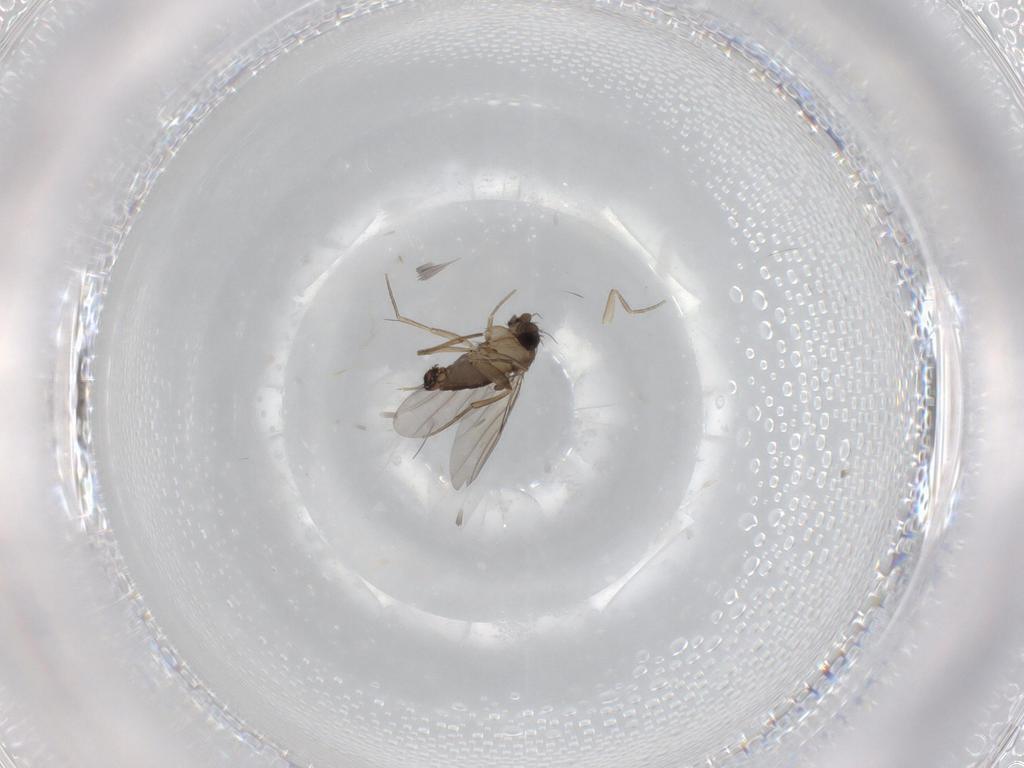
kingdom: Animalia
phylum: Arthropoda
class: Insecta
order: Diptera
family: Phoridae
